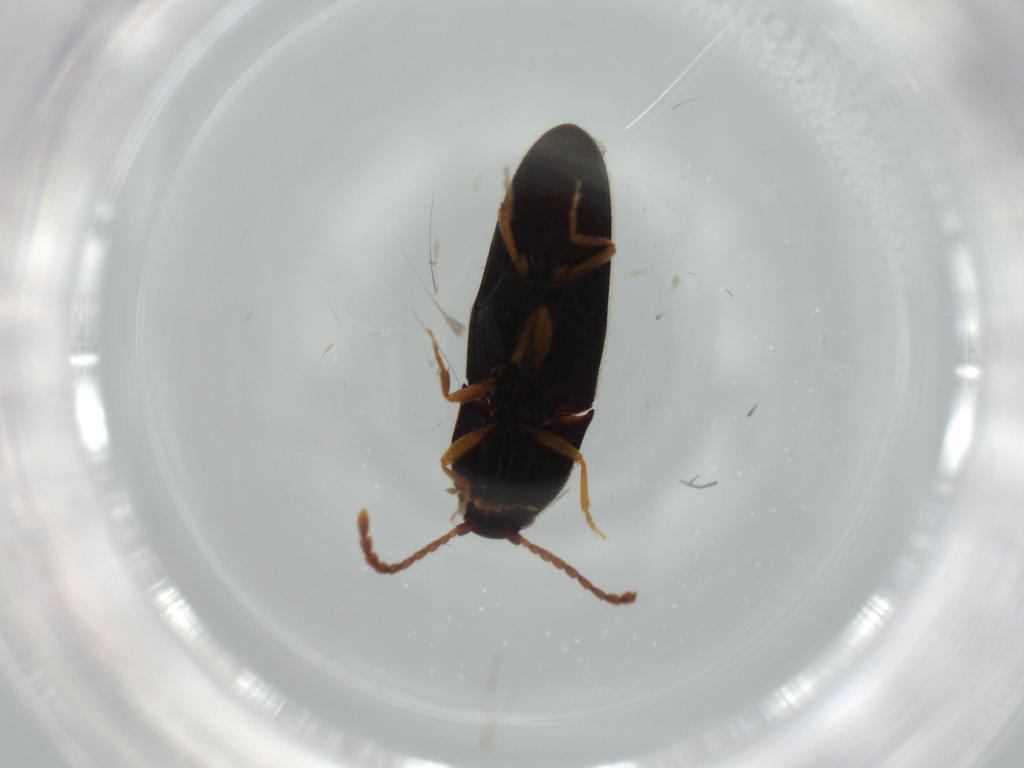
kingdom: Animalia
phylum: Arthropoda
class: Insecta
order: Coleoptera
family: Elateridae
